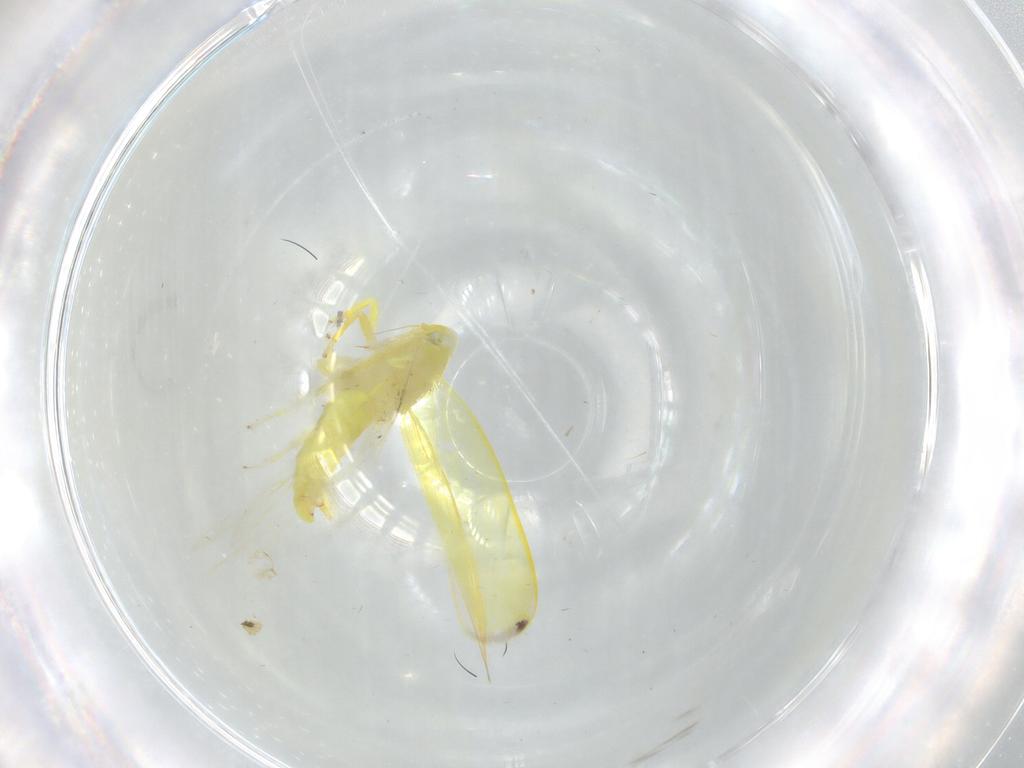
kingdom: Animalia
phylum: Arthropoda
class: Insecta
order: Hemiptera
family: Cicadellidae
